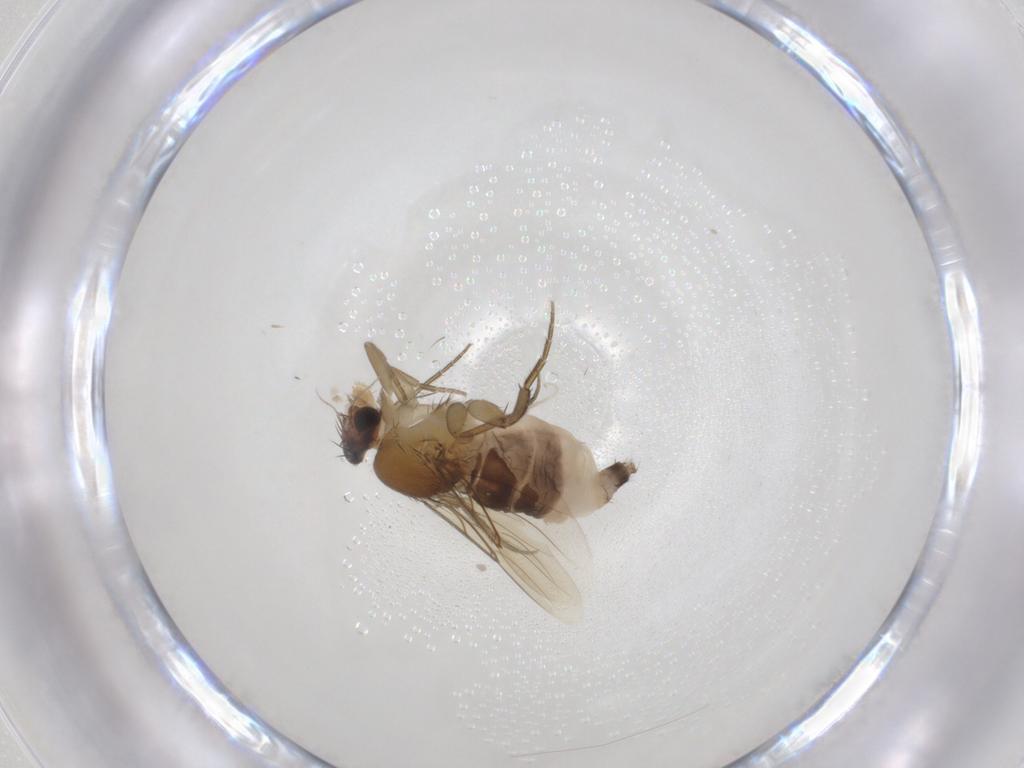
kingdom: Animalia
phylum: Arthropoda
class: Insecta
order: Diptera
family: Phoridae
